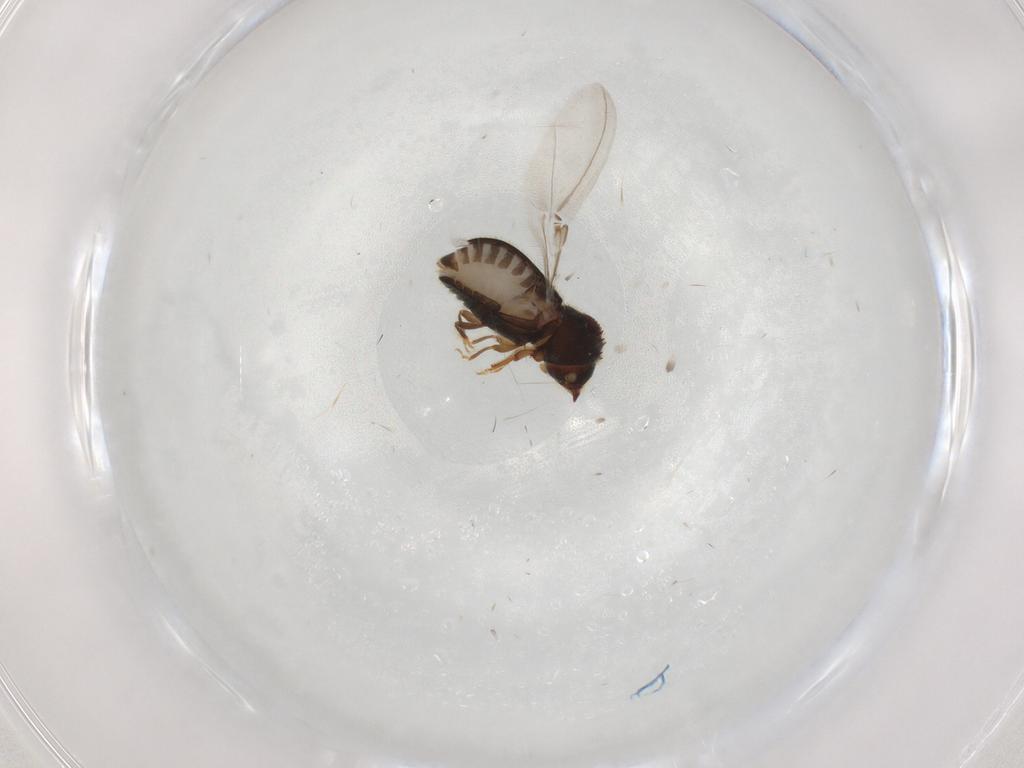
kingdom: Animalia
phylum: Arthropoda
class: Insecta
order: Coleoptera
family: Curculionidae
